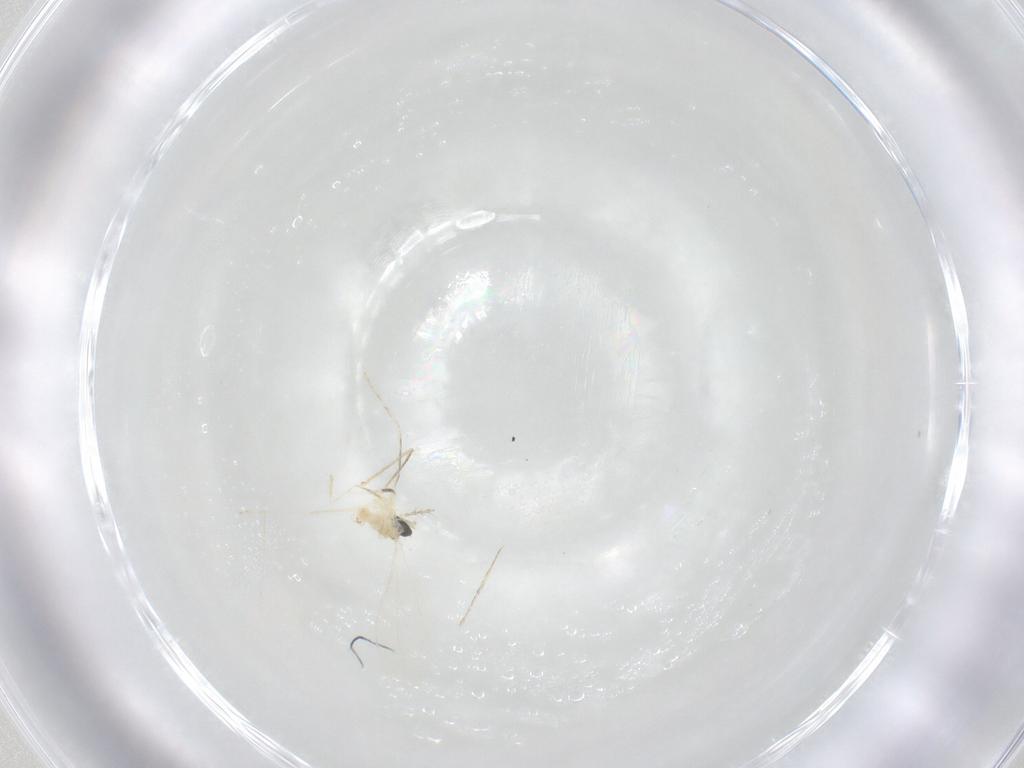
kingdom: Animalia
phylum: Arthropoda
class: Insecta
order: Diptera
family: Cecidomyiidae
